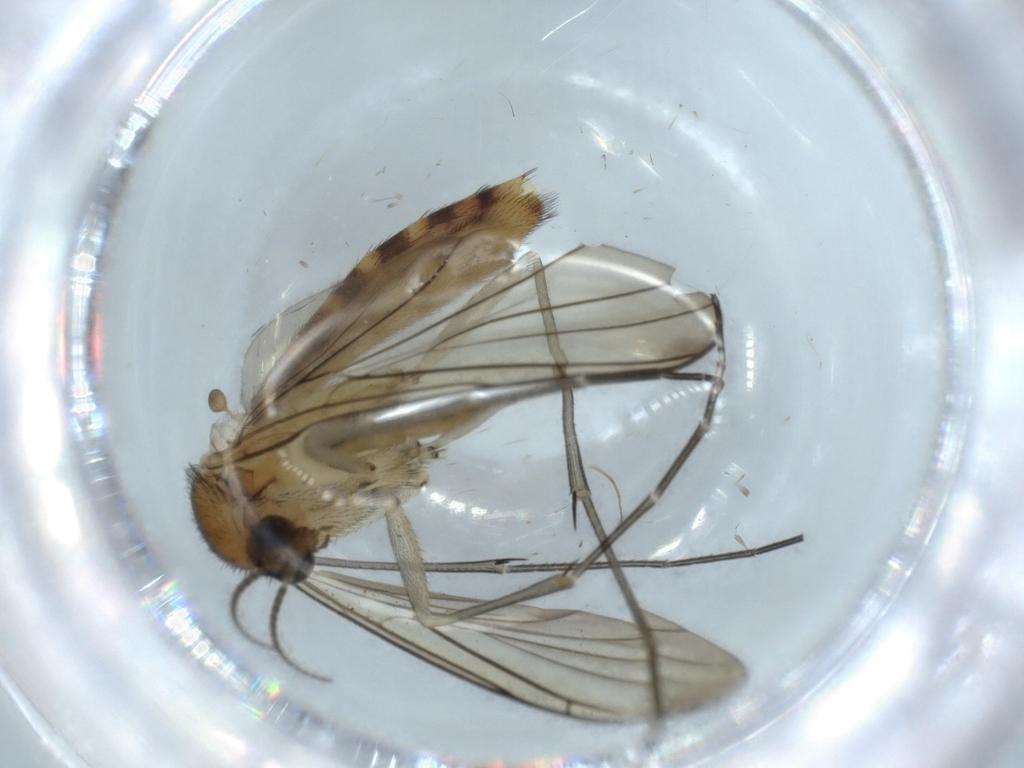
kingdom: Animalia
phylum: Arthropoda
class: Insecta
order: Diptera
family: Keroplatidae
